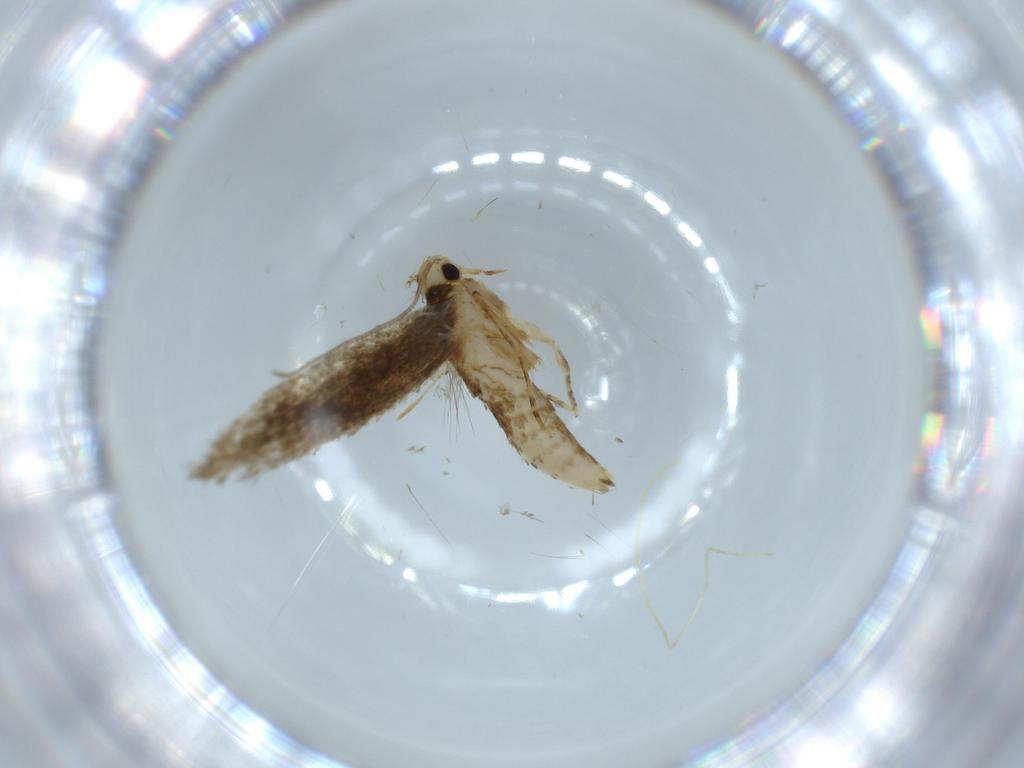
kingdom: Animalia
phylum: Arthropoda
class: Insecta
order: Lepidoptera
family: Tineidae
